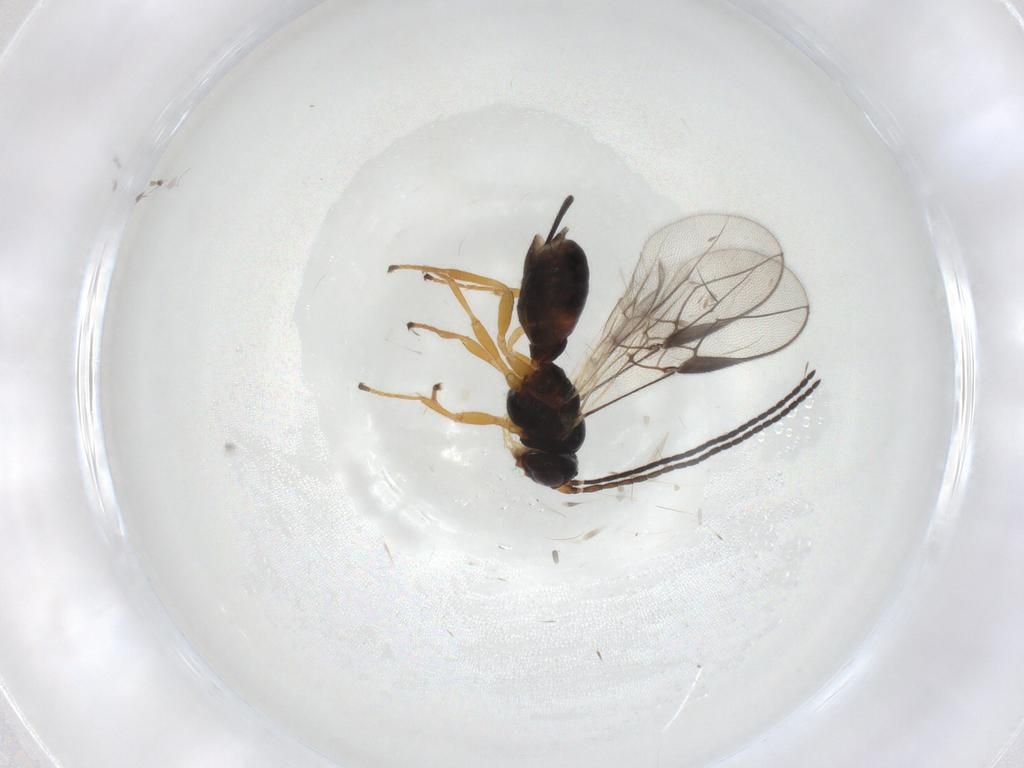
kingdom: Animalia
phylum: Arthropoda
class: Insecta
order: Hymenoptera
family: Braconidae
